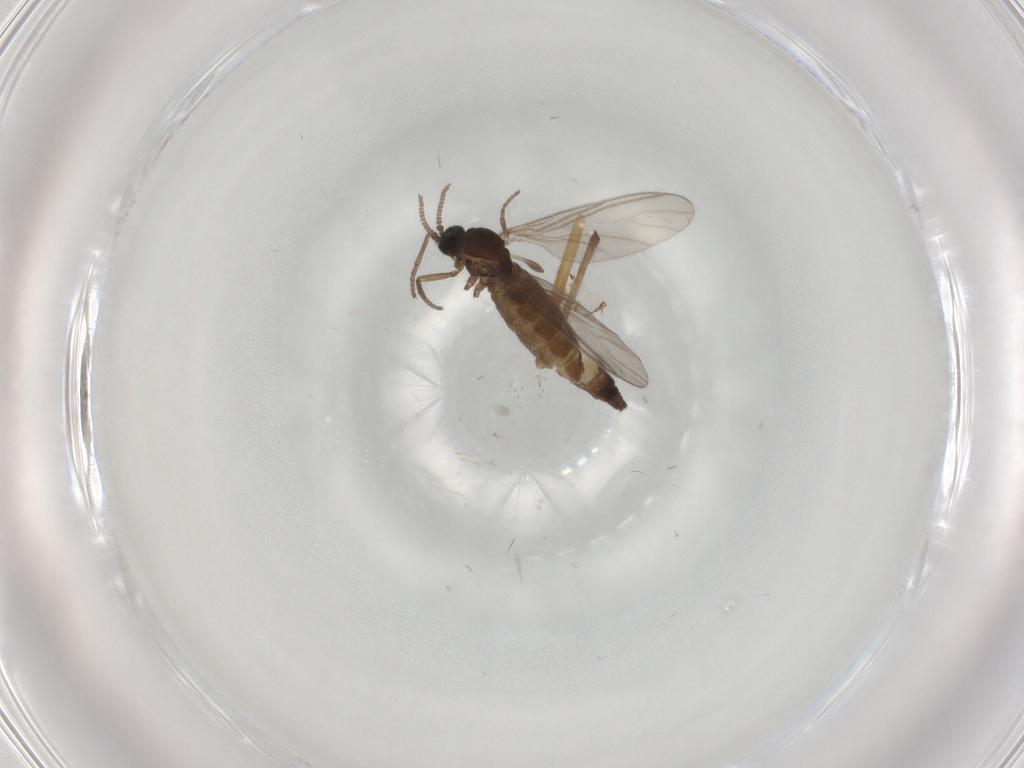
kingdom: Animalia
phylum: Arthropoda
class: Insecta
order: Diptera
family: Sciaridae
